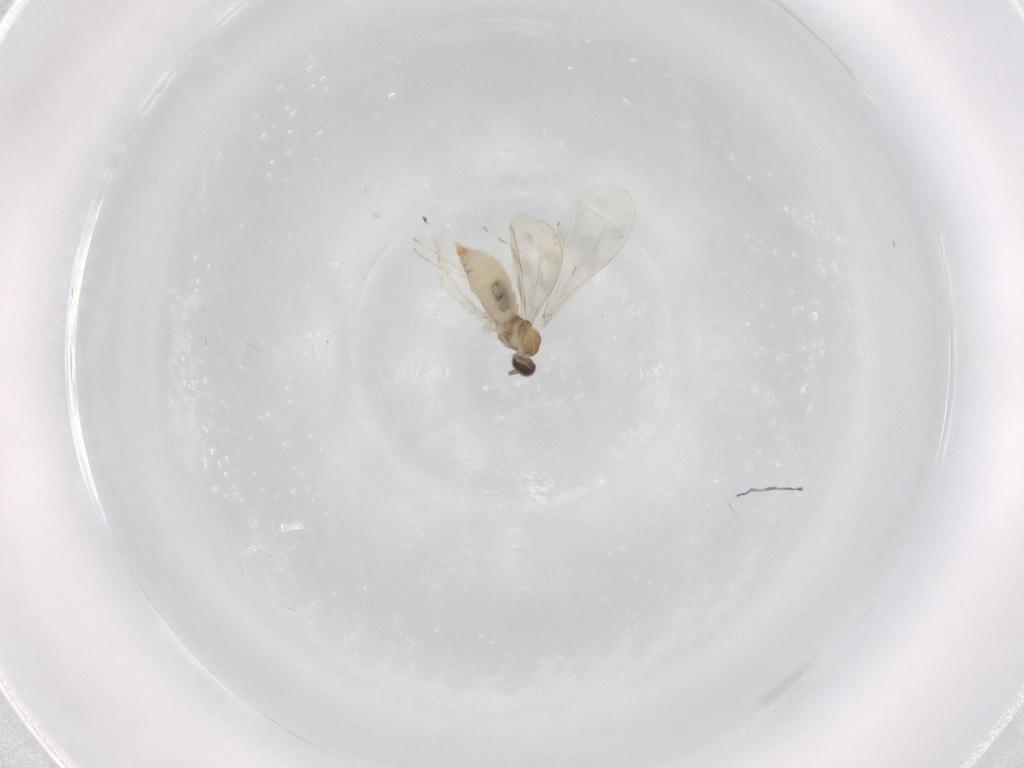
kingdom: Animalia
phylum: Arthropoda
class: Insecta
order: Diptera
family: Cecidomyiidae
